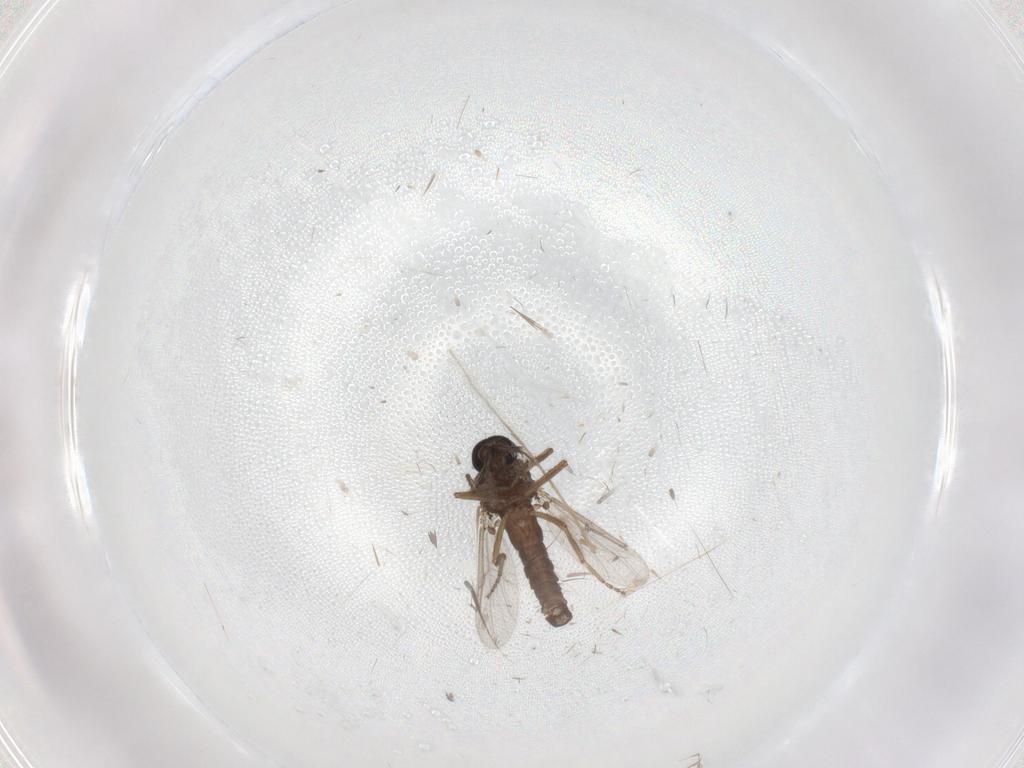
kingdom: Animalia
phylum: Arthropoda
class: Insecta
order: Diptera
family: Ceratopogonidae
